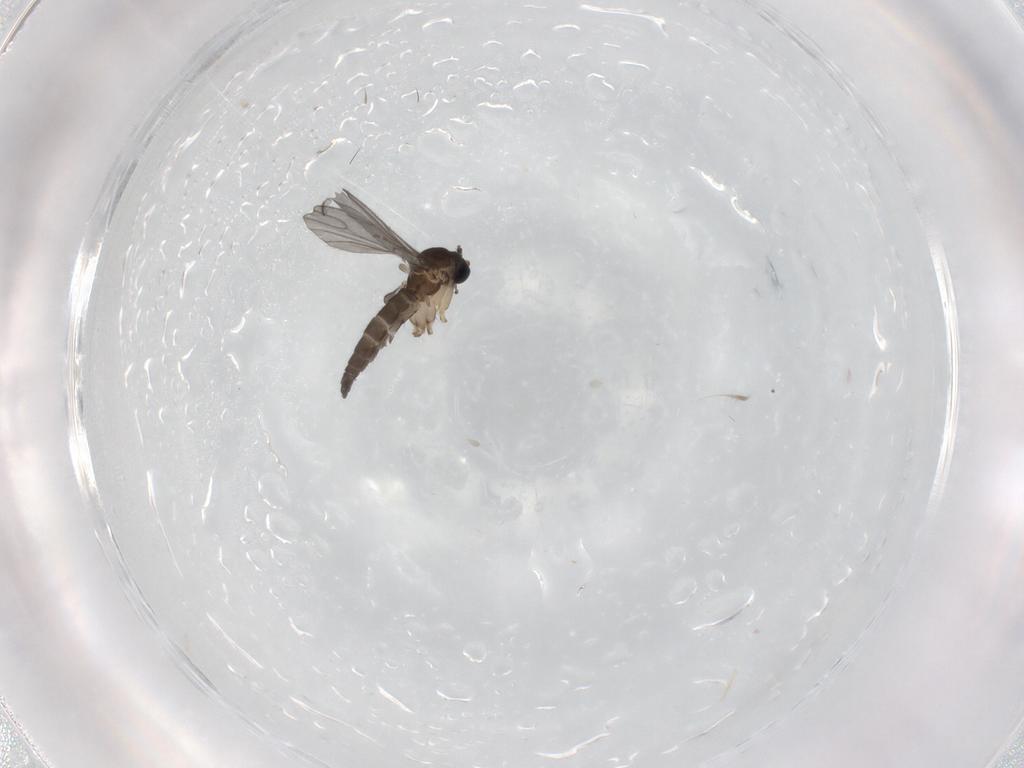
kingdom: Animalia
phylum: Arthropoda
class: Insecta
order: Diptera
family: Sciaridae
